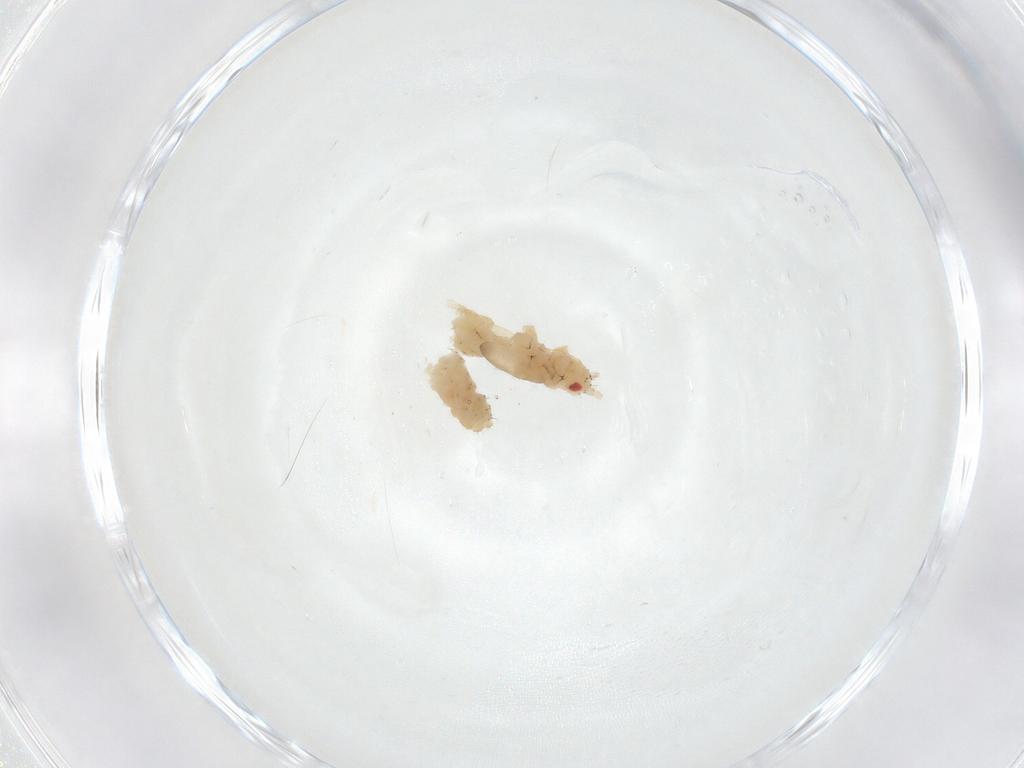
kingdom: Animalia
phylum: Arthropoda
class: Insecta
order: Hemiptera
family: Aphididae
